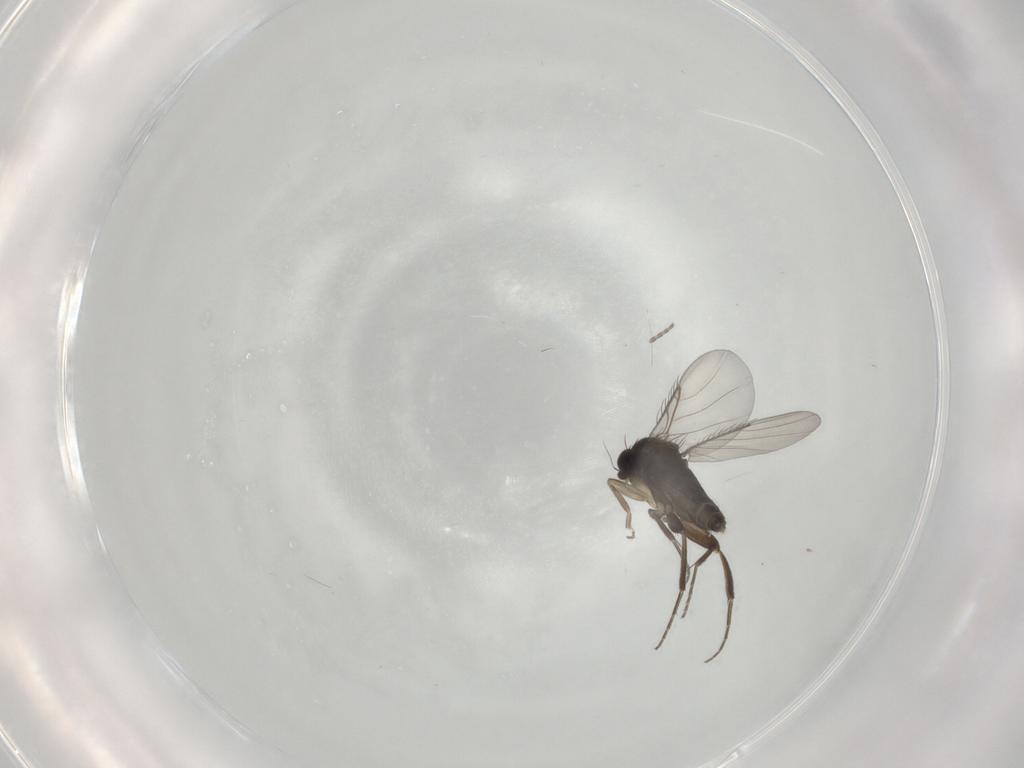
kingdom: Animalia
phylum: Arthropoda
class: Insecta
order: Diptera
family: Phoridae
